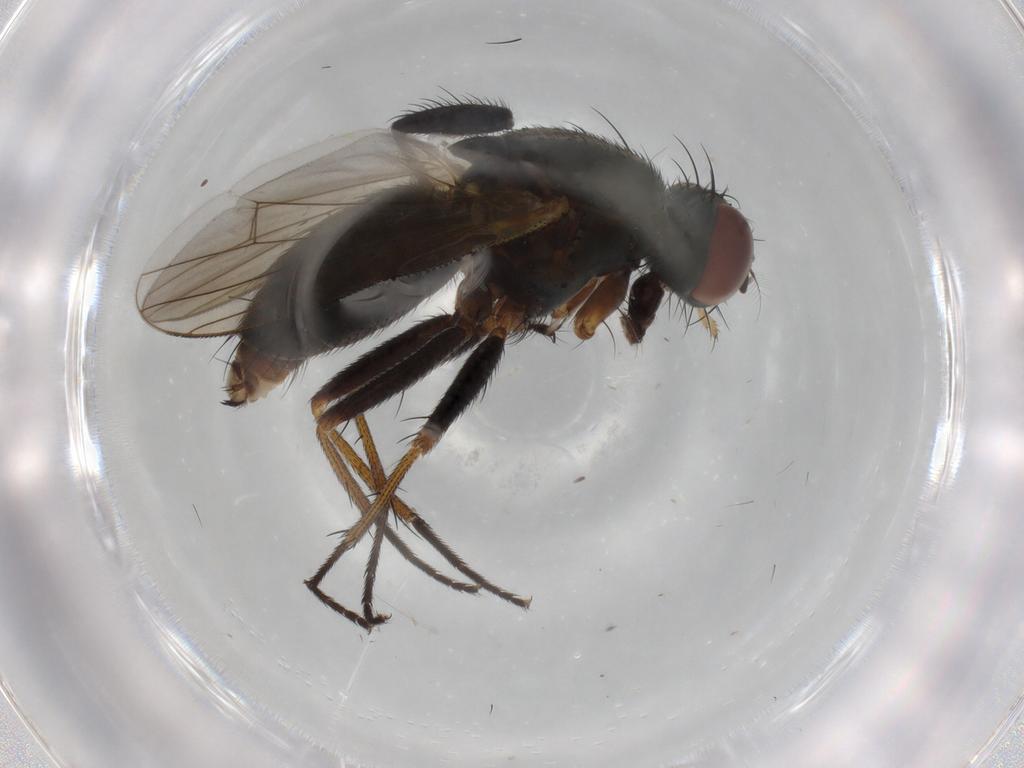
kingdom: Animalia
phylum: Arthropoda
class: Insecta
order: Diptera
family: Muscidae
